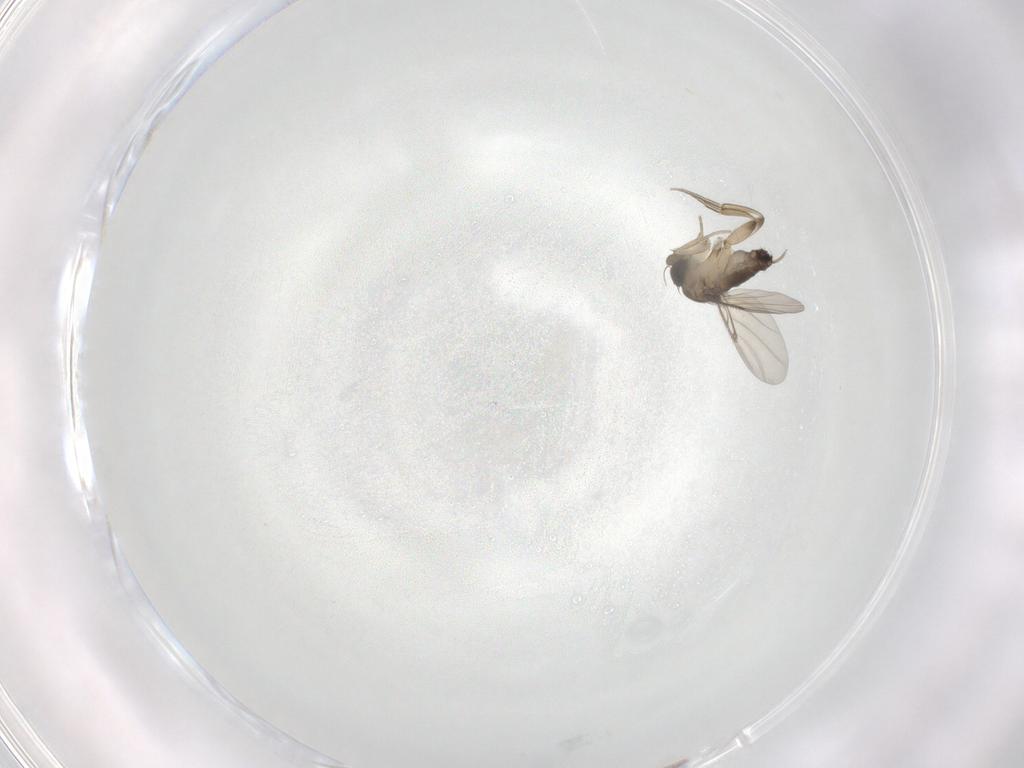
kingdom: Animalia
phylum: Arthropoda
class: Insecta
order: Diptera
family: Phoridae
